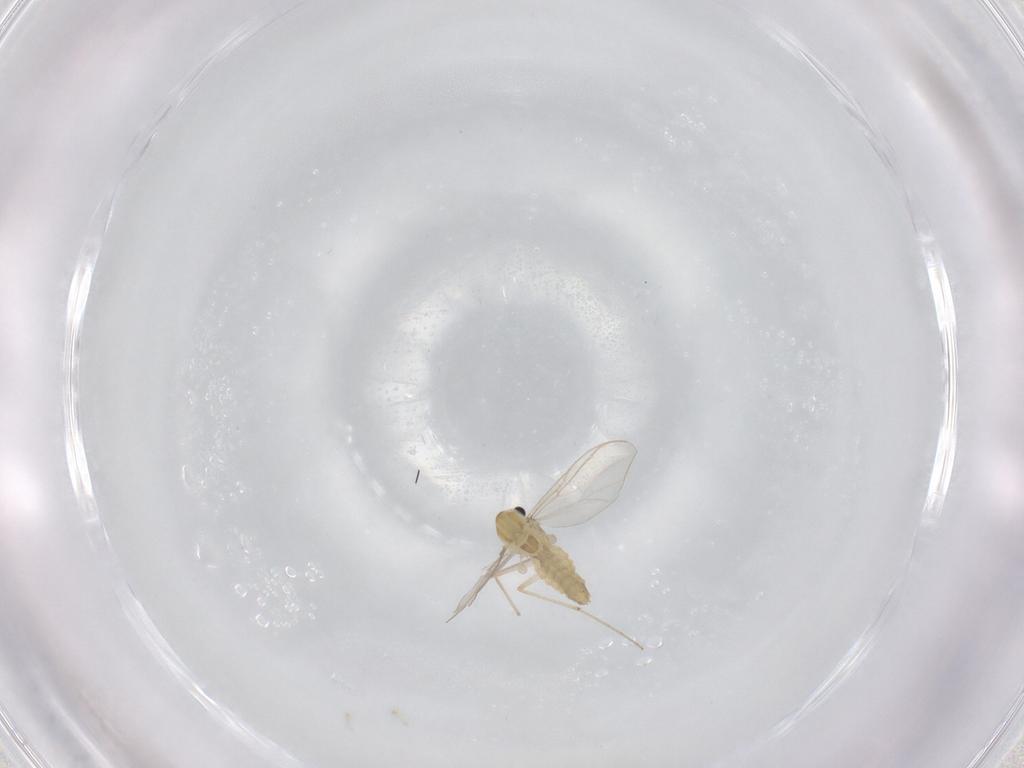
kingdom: Animalia
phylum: Arthropoda
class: Insecta
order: Diptera
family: Chironomidae
